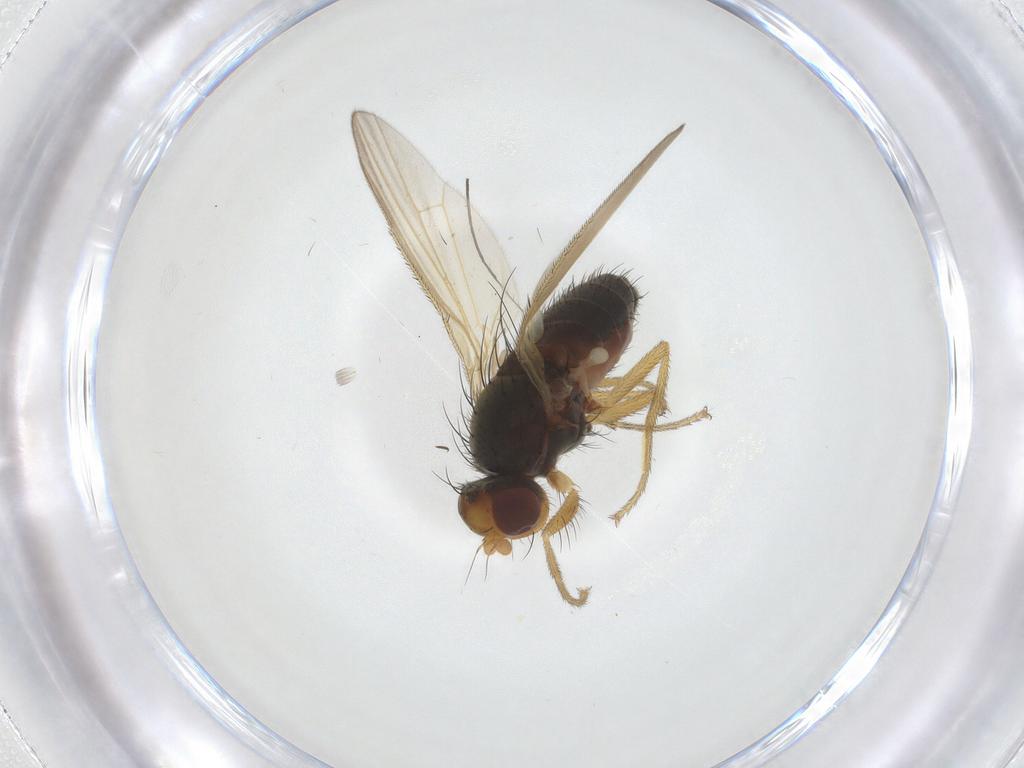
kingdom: Animalia
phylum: Arthropoda
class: Insecta
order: Diptera
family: Heleomyzidae
